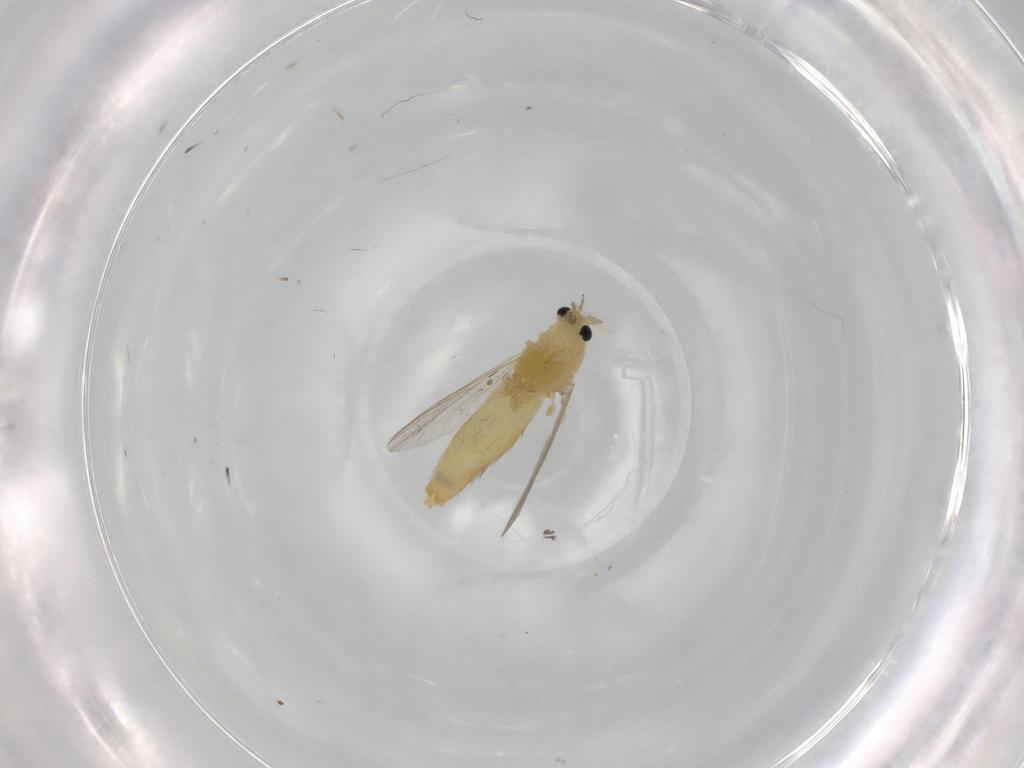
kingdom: Animalia
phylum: Arthropoda
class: Insecta
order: Diptera
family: Chironomidae
